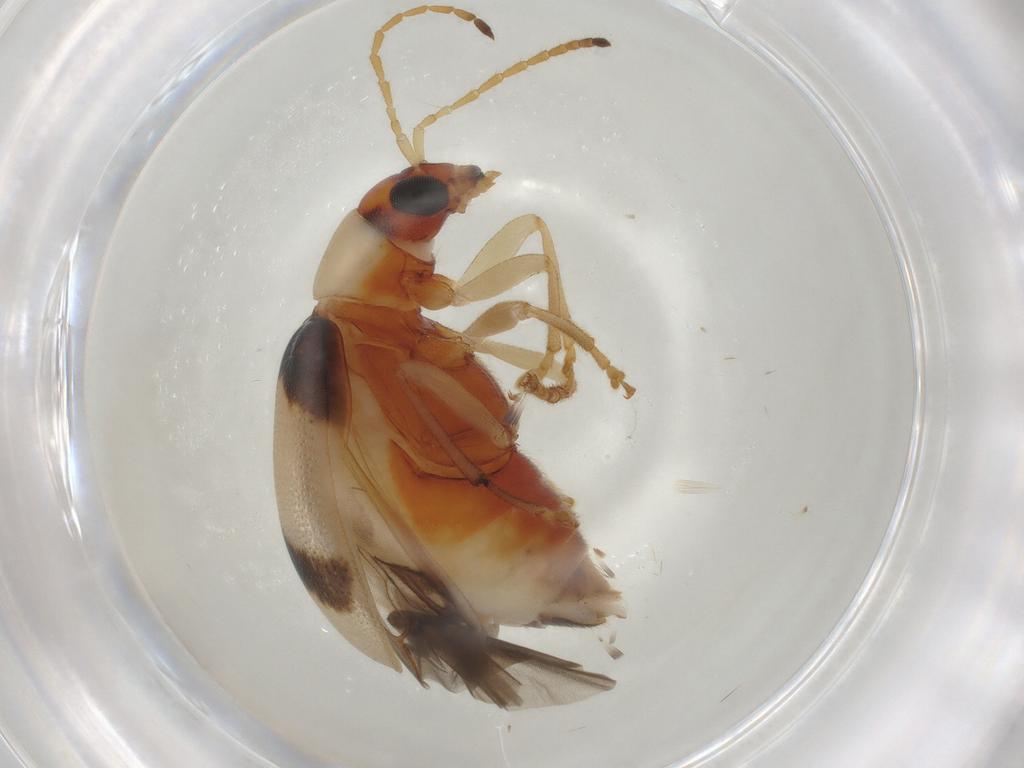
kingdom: Animalia
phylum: Arthropoda
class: Insecta
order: Coleoptera
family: Chrysomelidae
